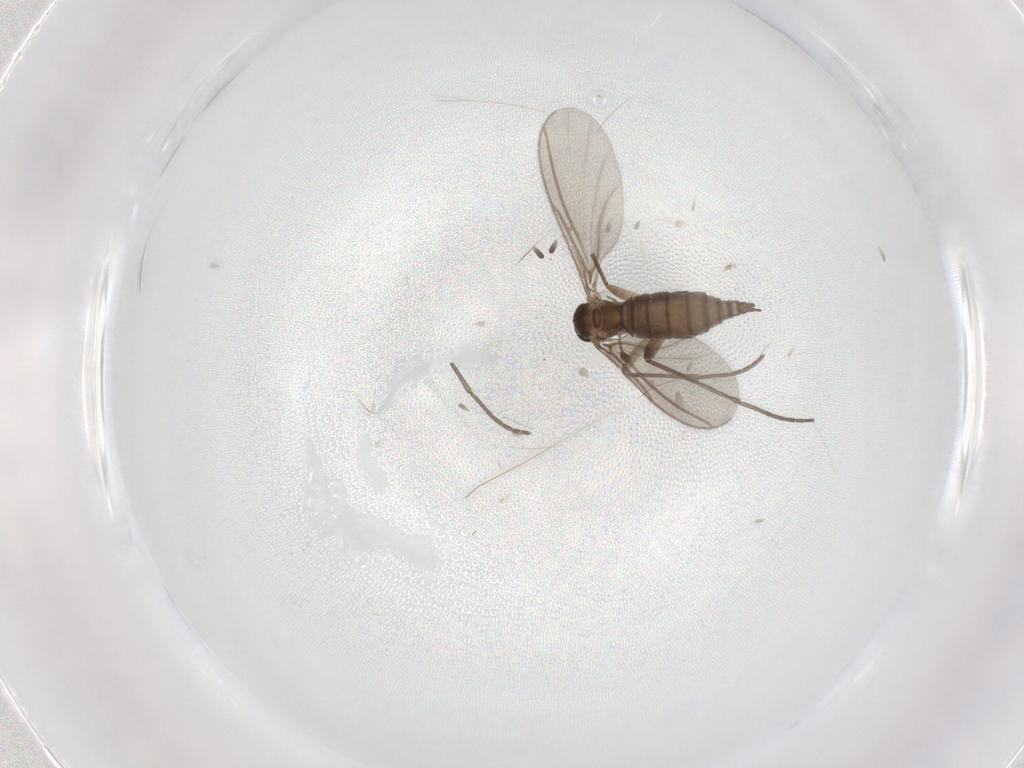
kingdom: Animalia
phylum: Arthropoda
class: Insecta
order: Diptera
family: Sciaridae
